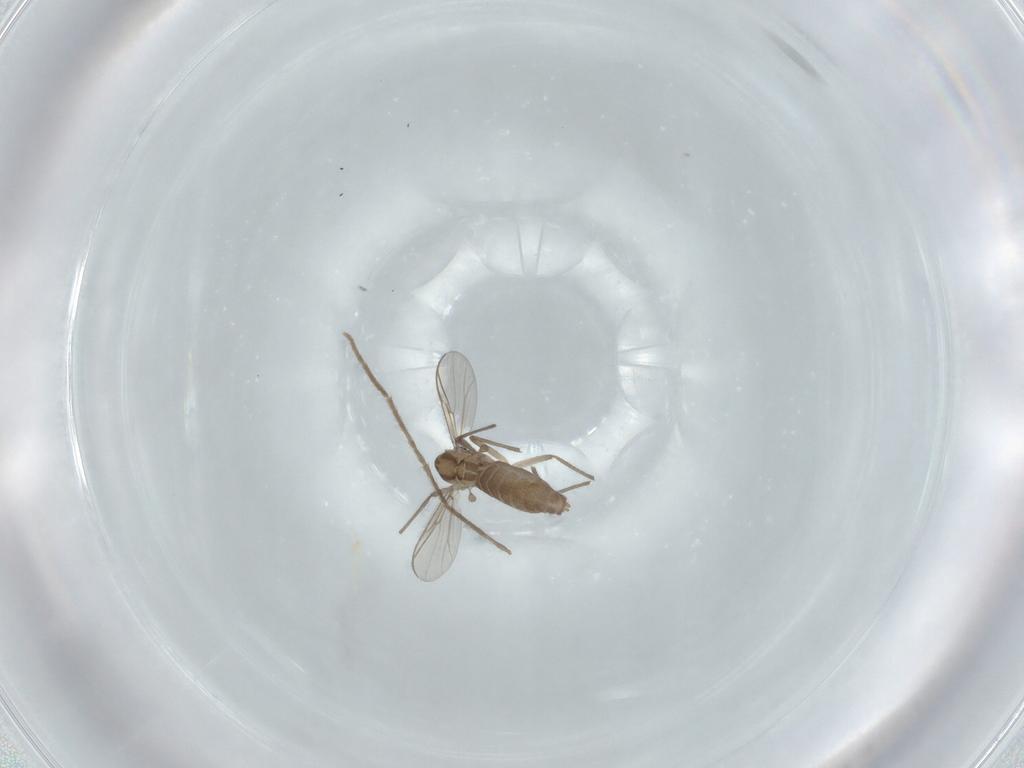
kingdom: Animalia
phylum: Arthropoda
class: Insecta
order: Diptera
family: Chironomidae
